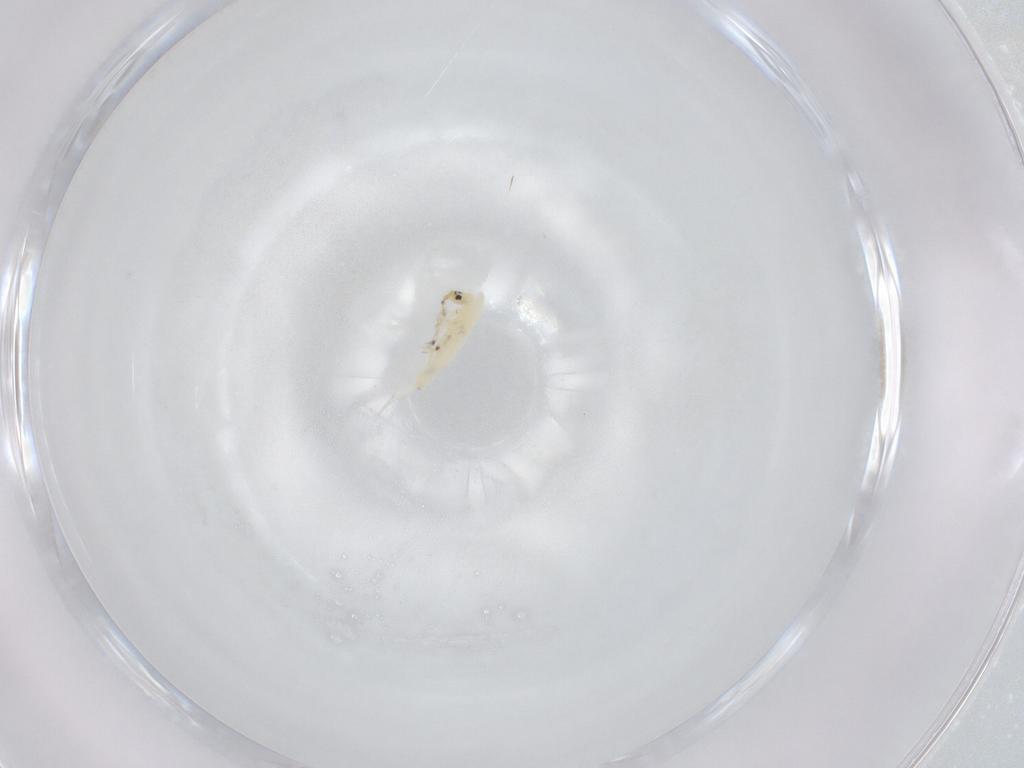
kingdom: Animalia
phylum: Arthropoda
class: Collembola
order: Entomobryomorpha
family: Entomobryidae
